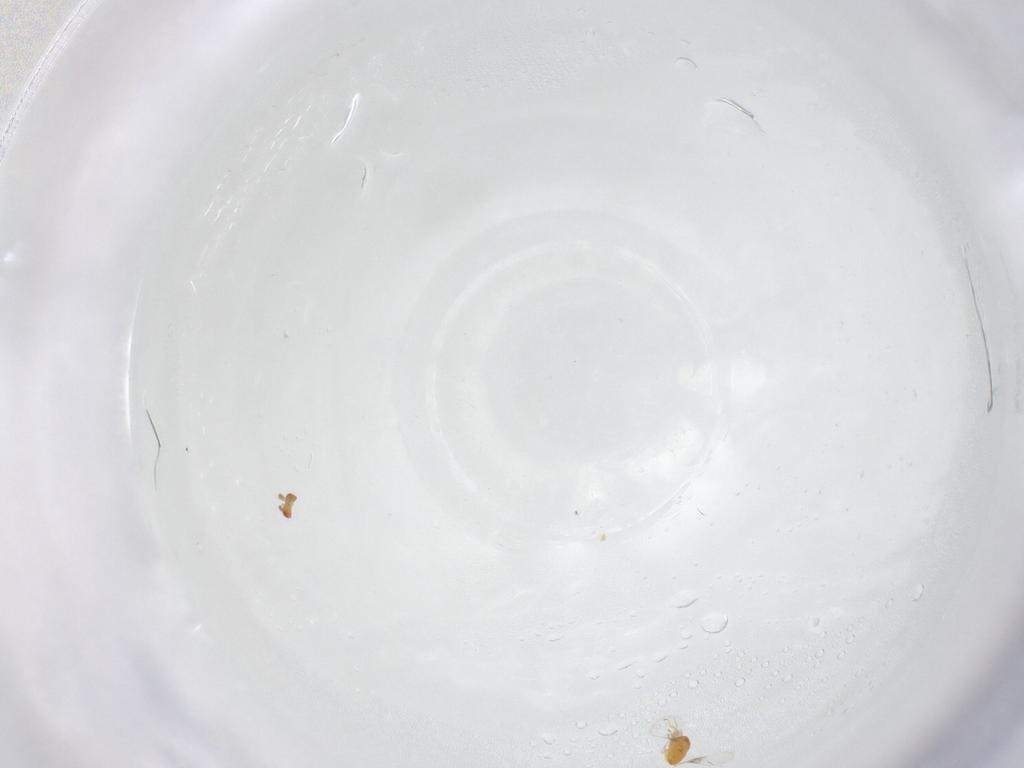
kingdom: Animalia
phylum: Arthropoda
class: Insecta
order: Hymenoptera
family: Trichogrammatidae
